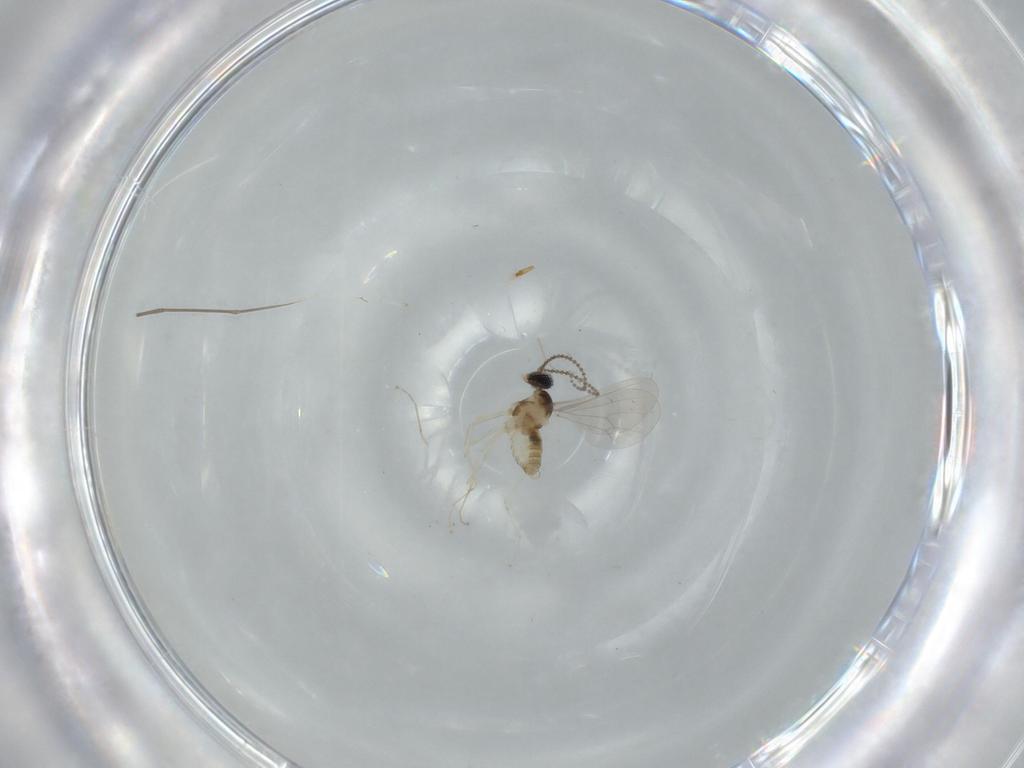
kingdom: Animalia
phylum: Arthropoda
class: Insecta
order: Diptera
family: Cecidomyiidae
